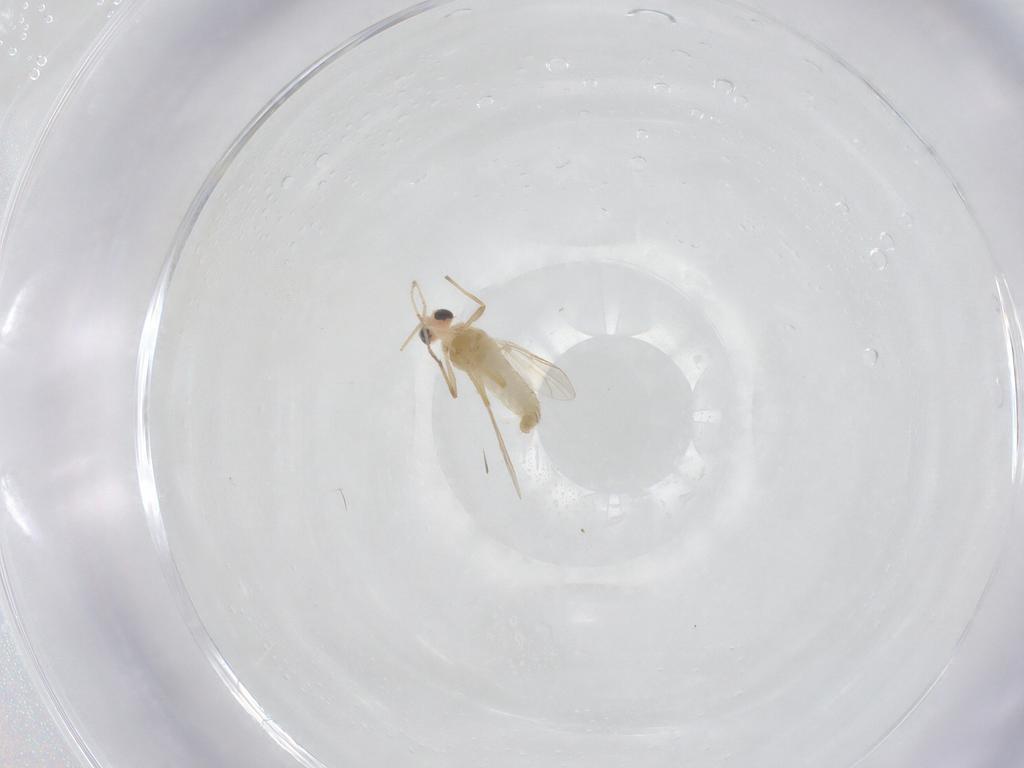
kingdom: Animalia
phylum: Arthropoda
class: Insecta
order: Diptera
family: Chironomidae
